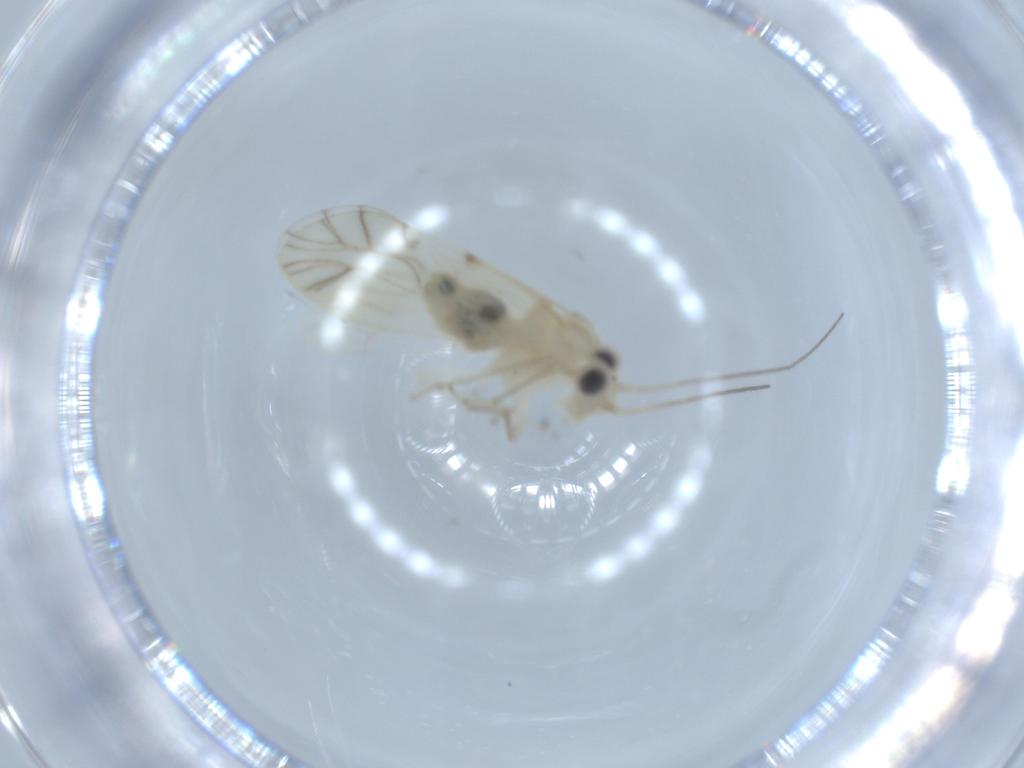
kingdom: Animalia
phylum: Arthropoda
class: Insecta
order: Psocodea
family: Caeciliusidae
